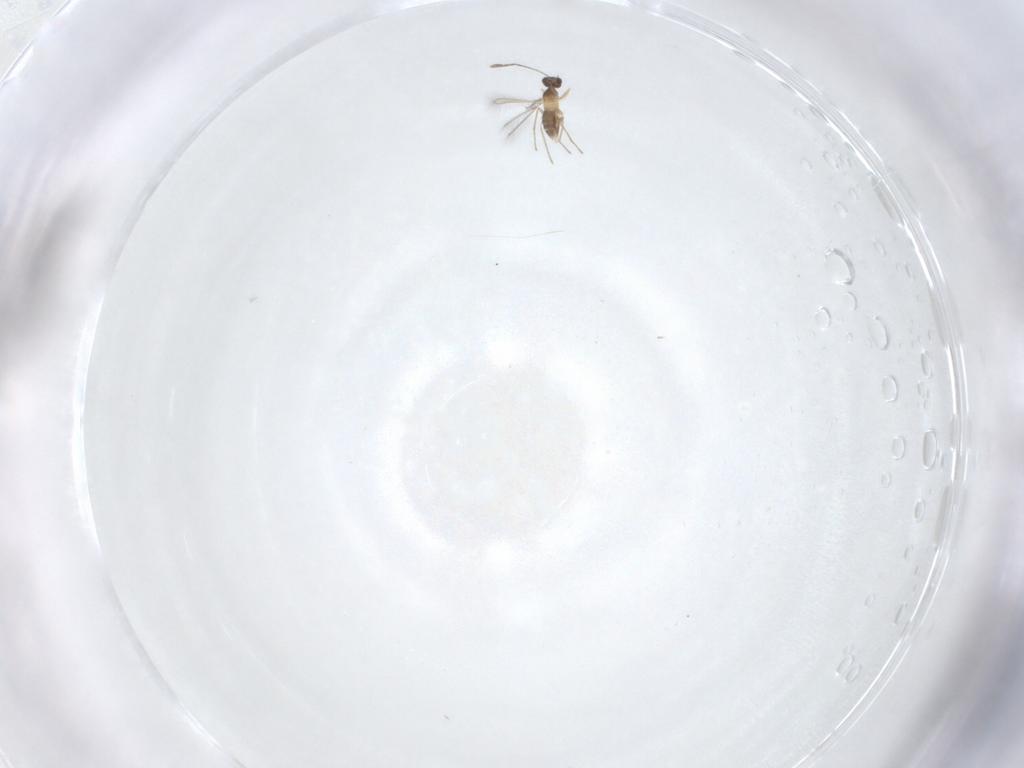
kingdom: Animalia
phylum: Arthropoda
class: Insecta
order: Hymenoptera
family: Mymaridae
